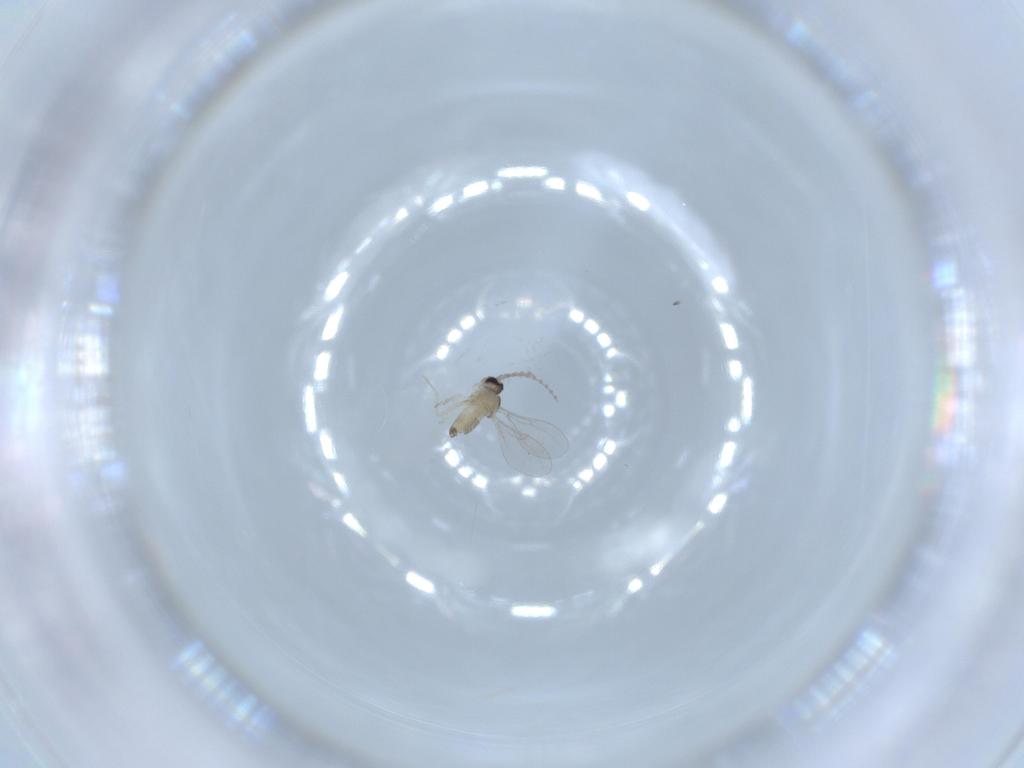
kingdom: Animalia
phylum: Arthropoda
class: Insecta
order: Diptera
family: Cecidomyiidae
